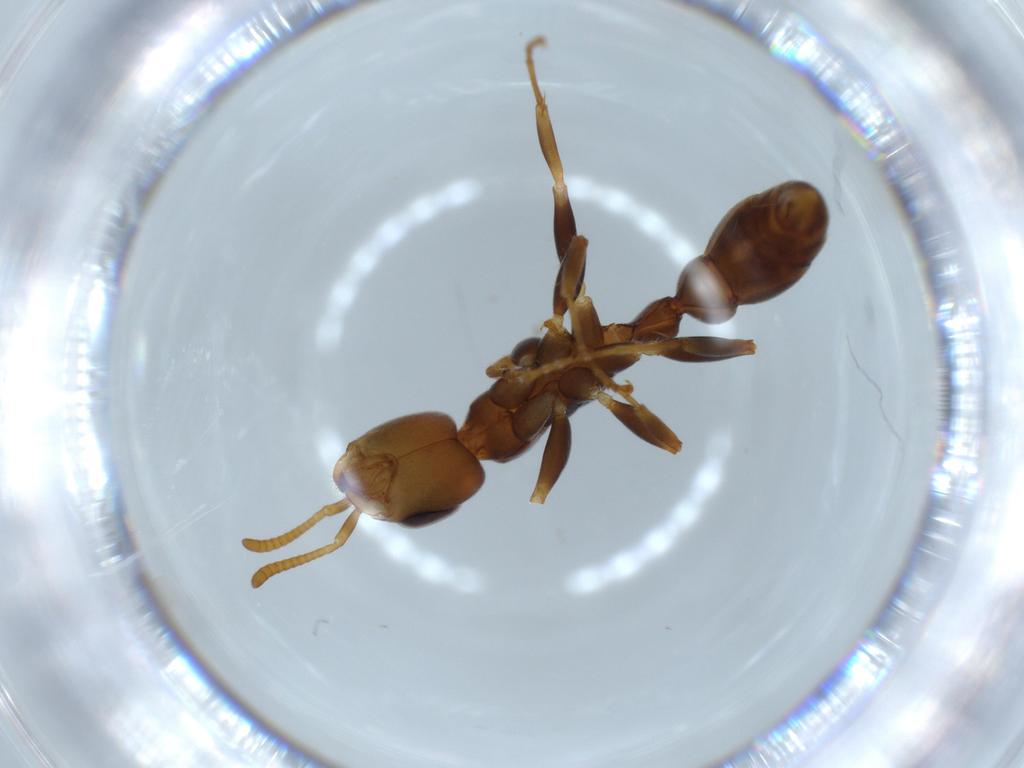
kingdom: Animalia
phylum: Arthropoda
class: Insecta
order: Hymenoptera
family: Formicidae
